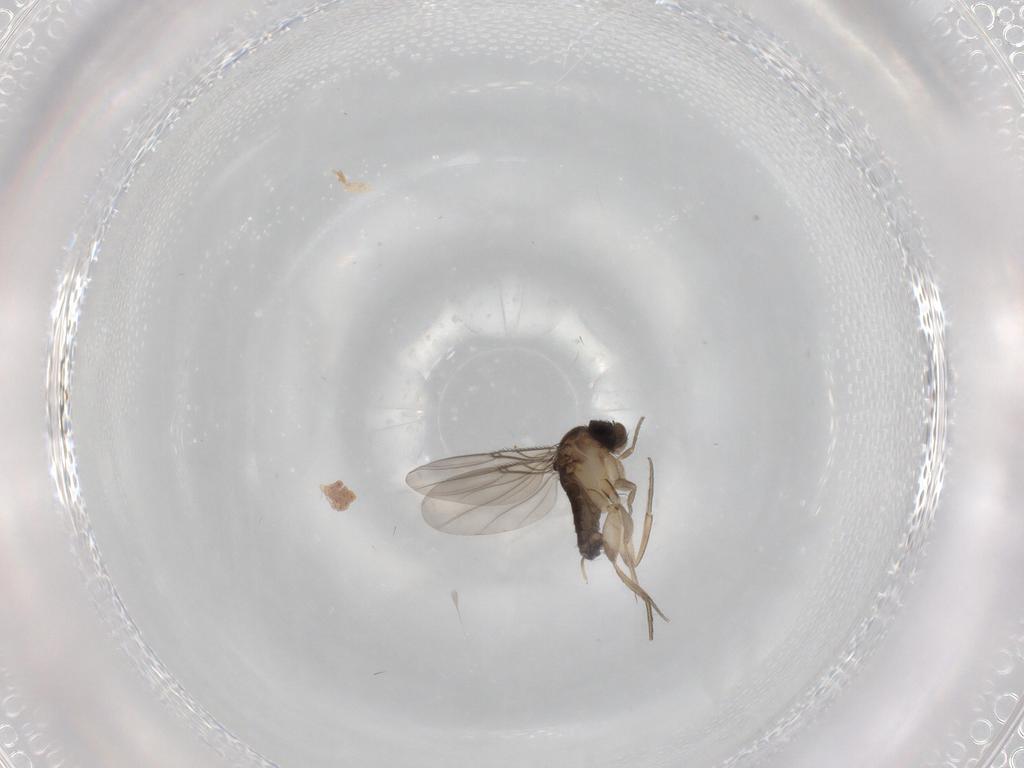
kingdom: Animalia
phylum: Arthropoda
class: Insecta
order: Diptera
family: Phoridae
